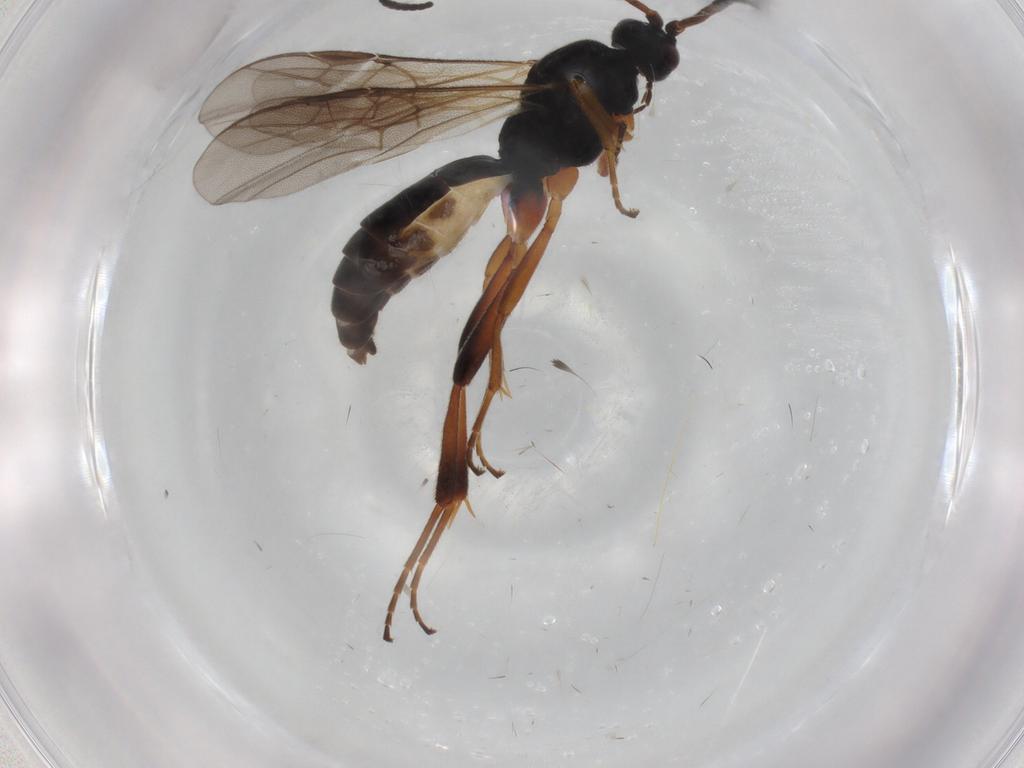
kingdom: Animalia
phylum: Arthropoda
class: Insecta
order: Hymenoptera
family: Braconidae
